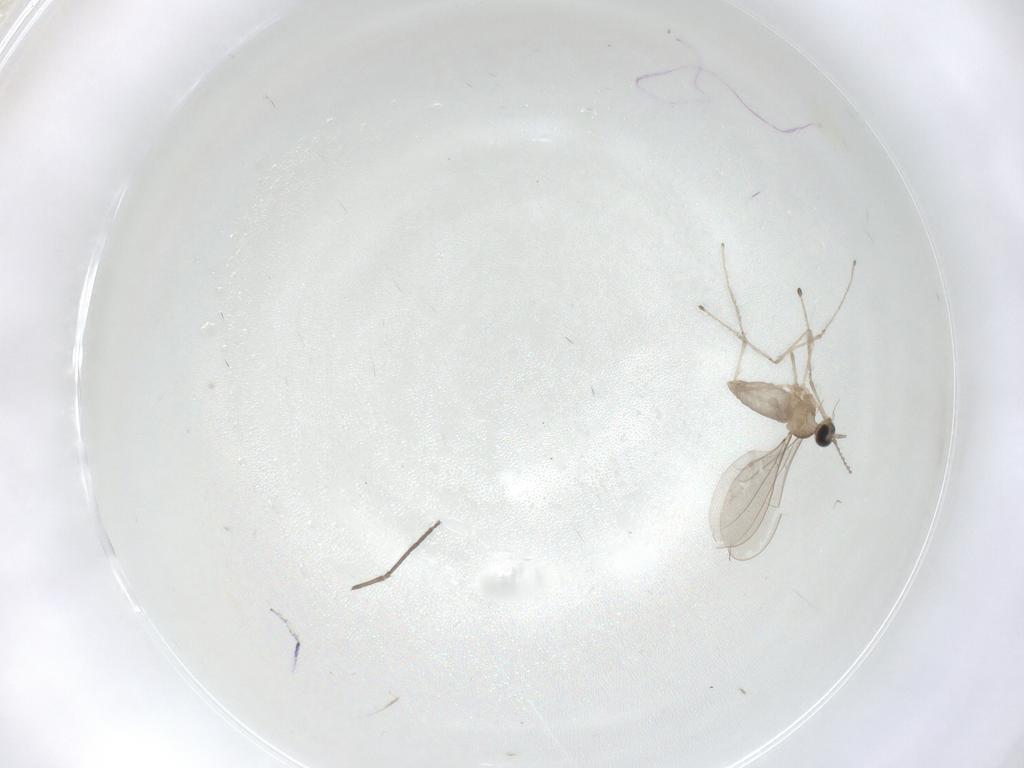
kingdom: Animalia
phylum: Arthropoda
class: Insecta
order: Diptera
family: Cecidomyiidae
